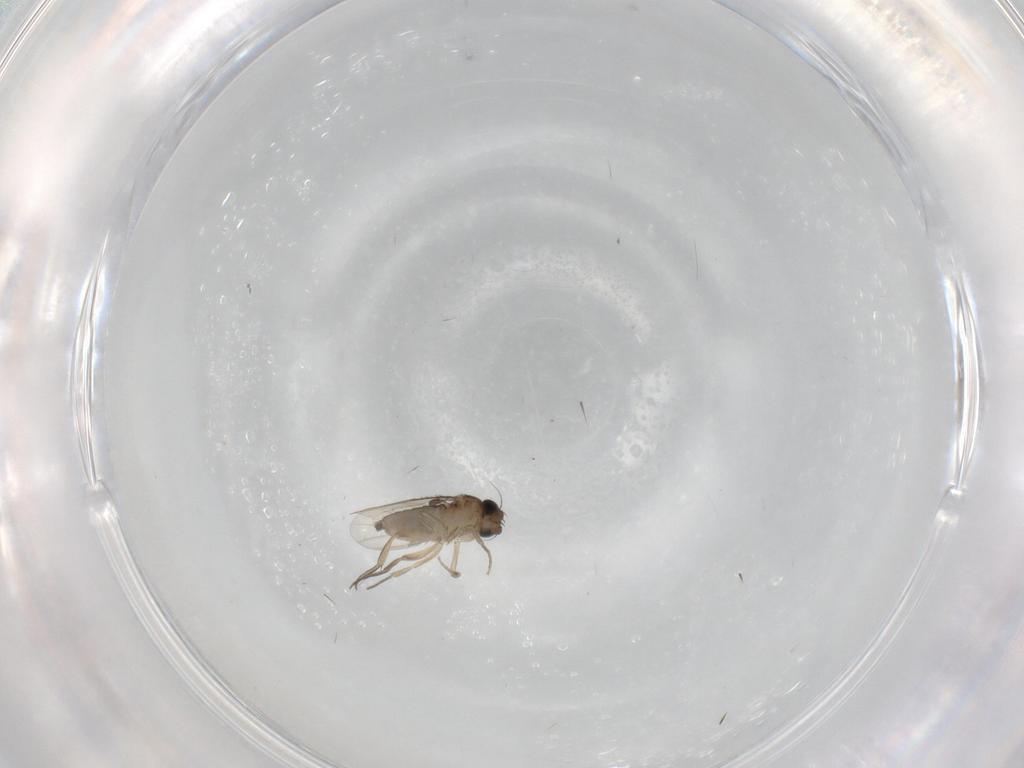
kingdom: Animalia
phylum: Arthropoda
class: Insecta
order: Diptera
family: Phoridae
